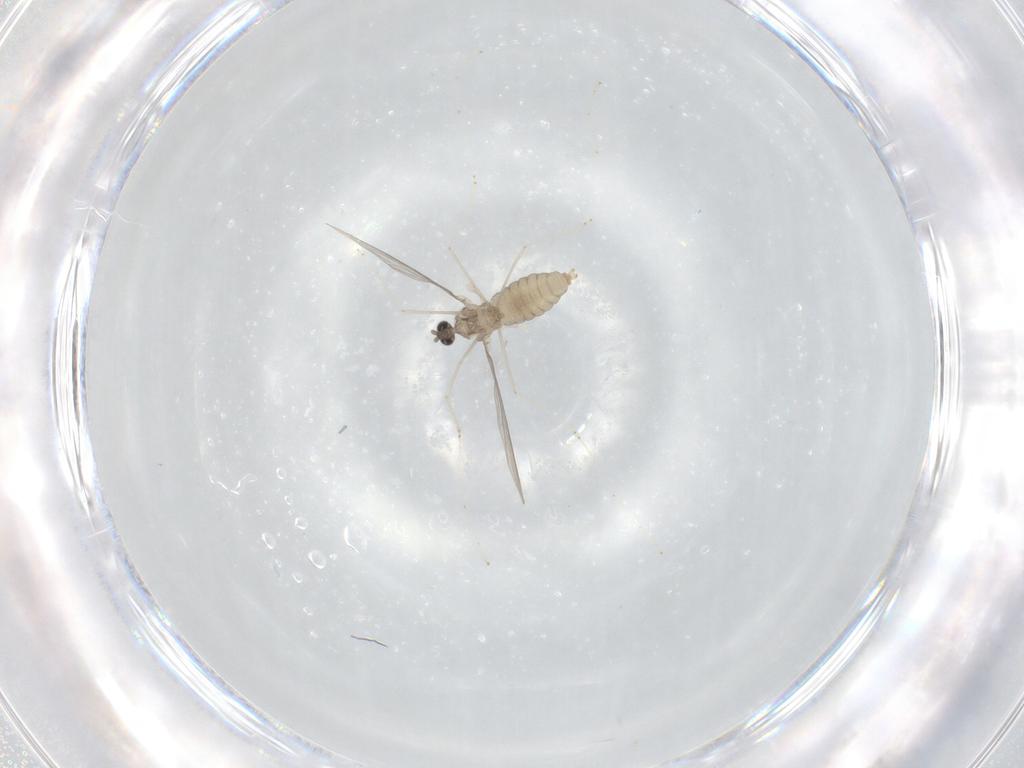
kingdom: Animalia
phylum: Arthropoda
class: Insecta
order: Diptera
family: Cecidomyiidae
